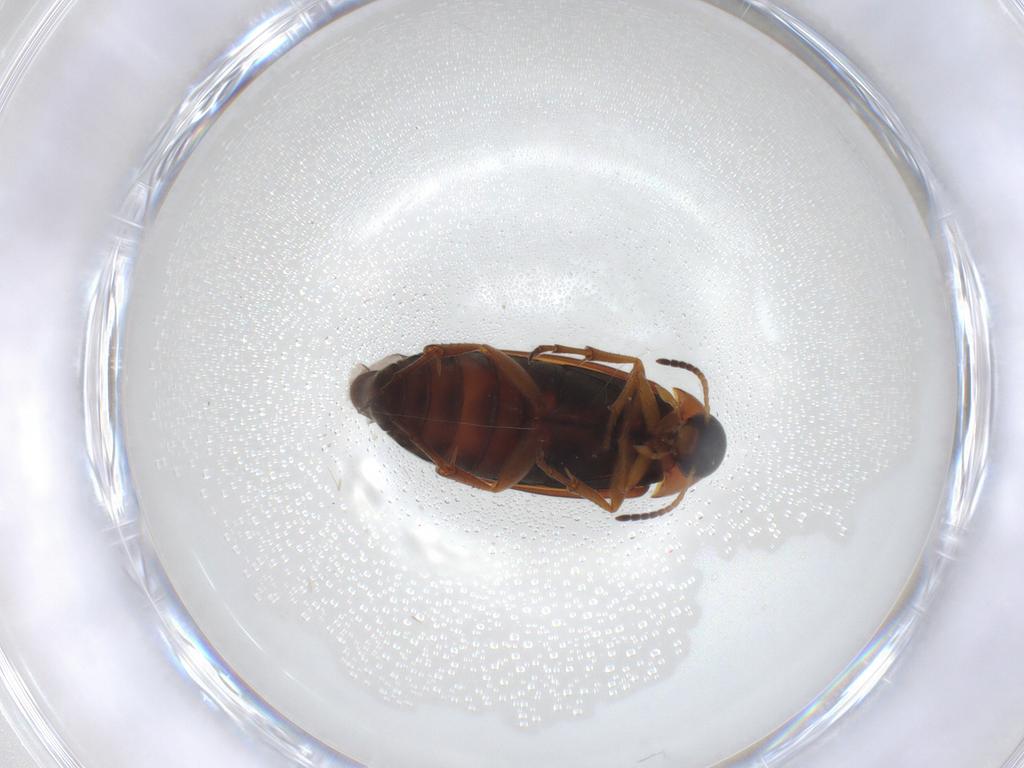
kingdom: Animalia
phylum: Arthropoda
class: Insecta
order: Coleoptera
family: Scraptiidae
